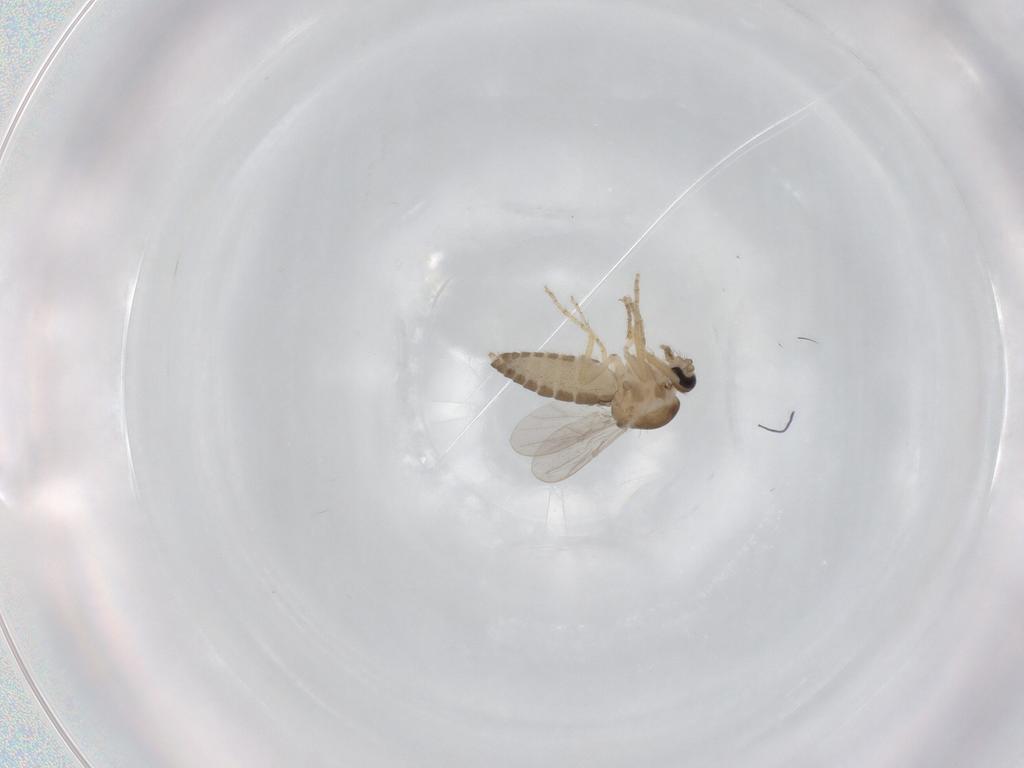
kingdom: Animalia
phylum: Arthropoda
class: Insecta
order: Diptera
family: Ceratopogonidae
